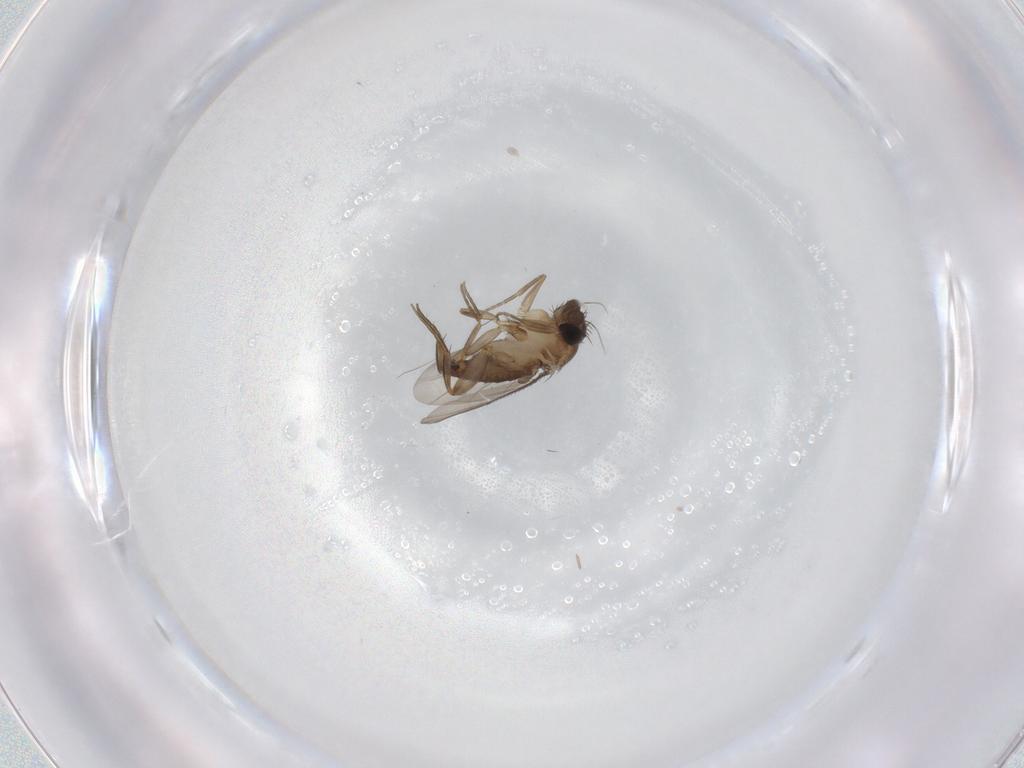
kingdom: Animalia
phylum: Arthropoda
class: Insecta
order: Diptera
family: Phoridae
